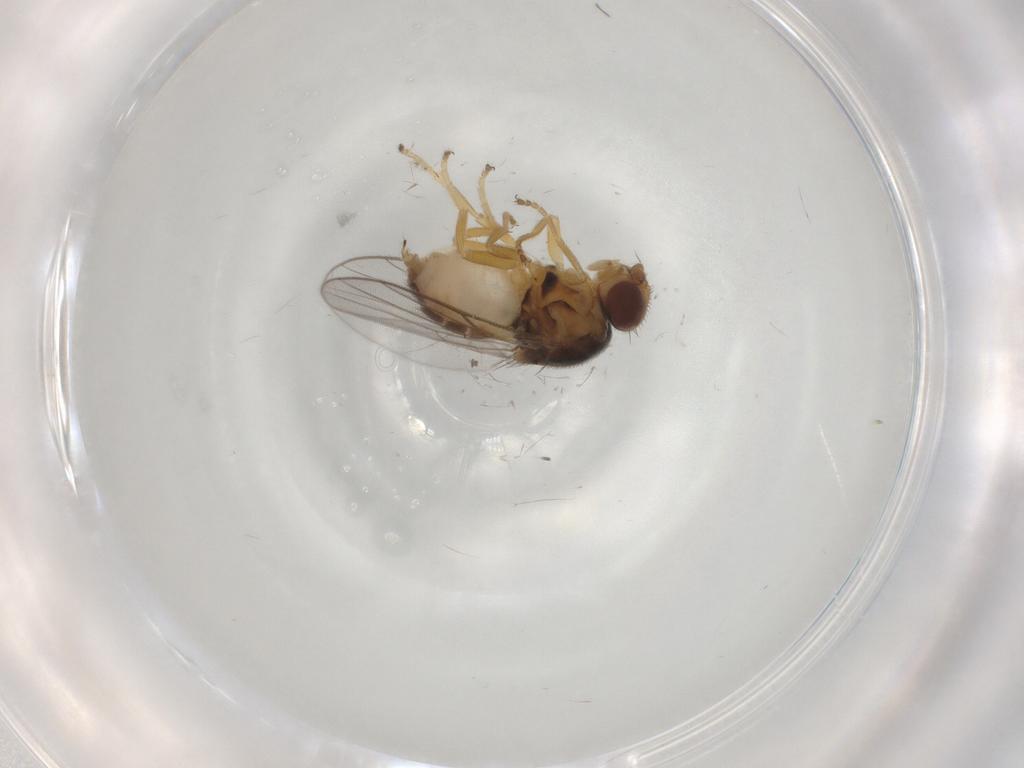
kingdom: Animalia
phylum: Arthropoda
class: Insecta
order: Diptera
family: Chloropidae
